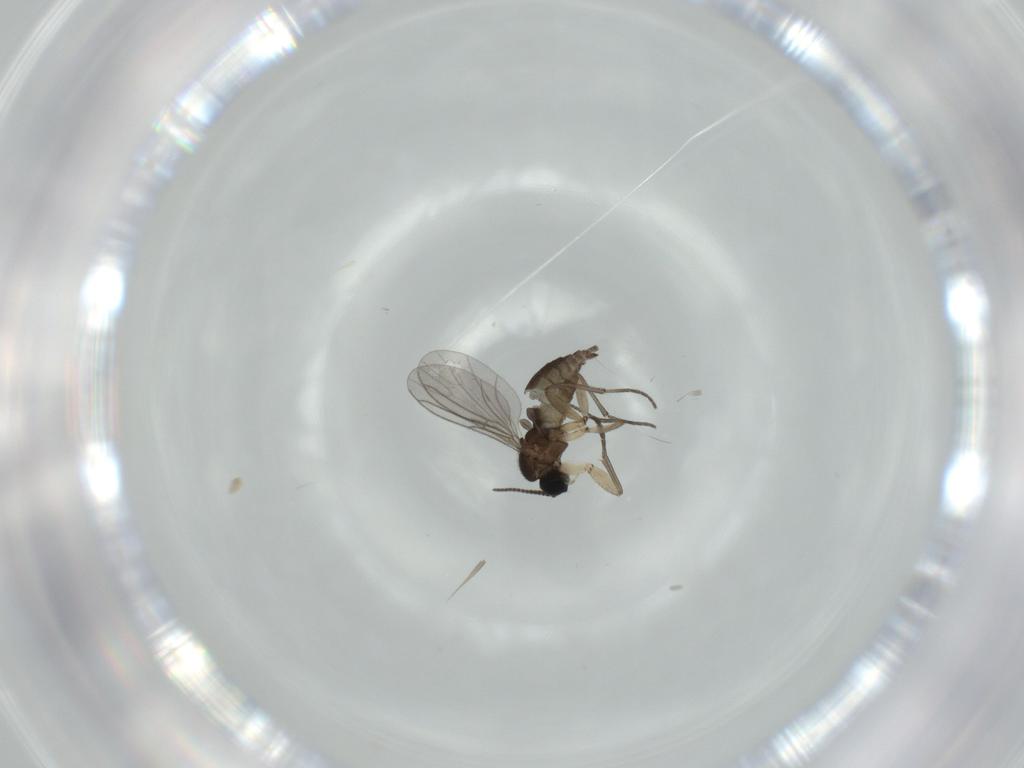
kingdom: Animalia
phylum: Arthropoda
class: Insecta
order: Diptera
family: Sciaridae
